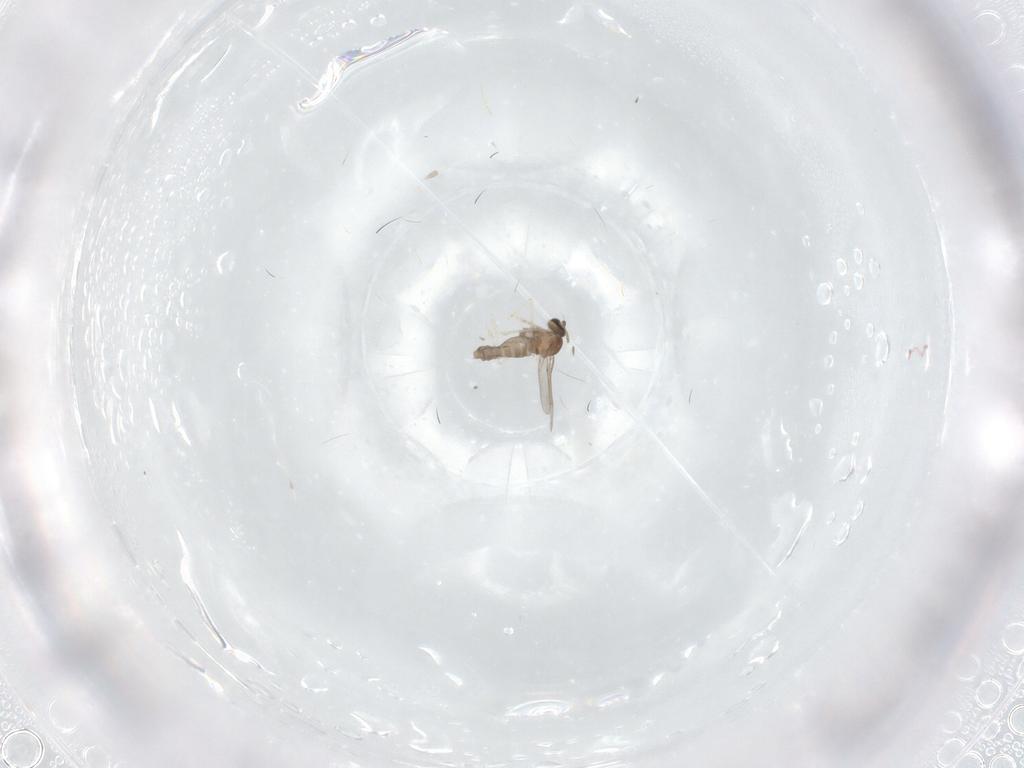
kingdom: Animalia
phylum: Arthropoda
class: Insecta
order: Diptera
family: Cecidomyiidae
